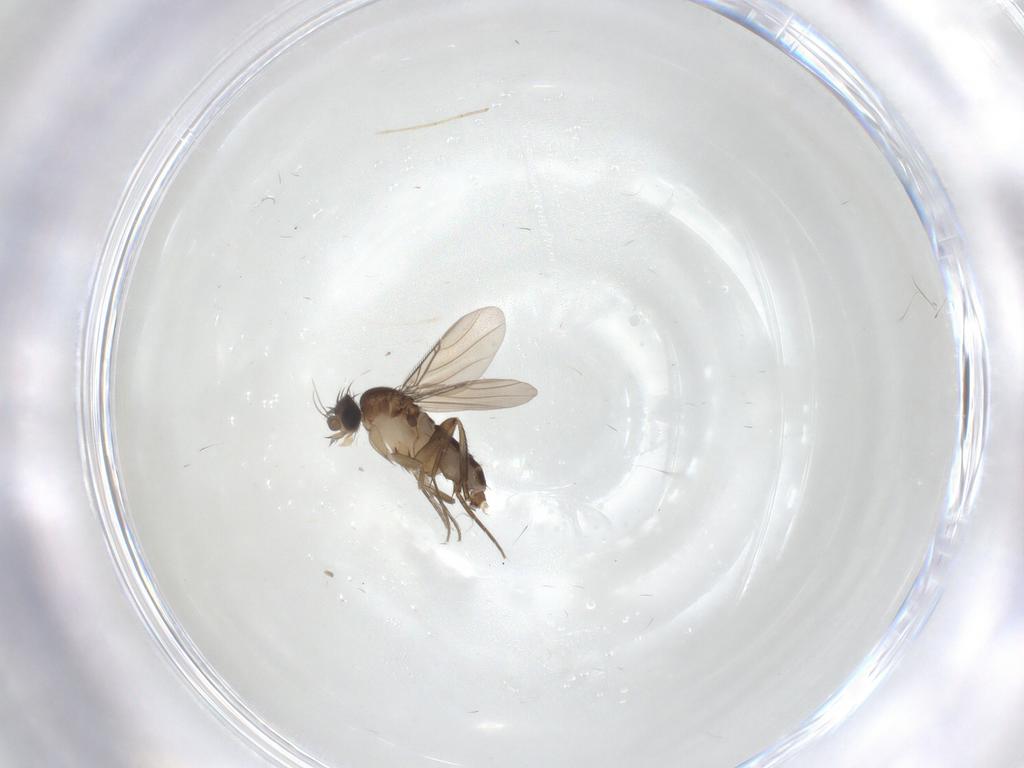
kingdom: Animalia
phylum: Arthropoda
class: Insecta
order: Diptera
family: Phoridae
